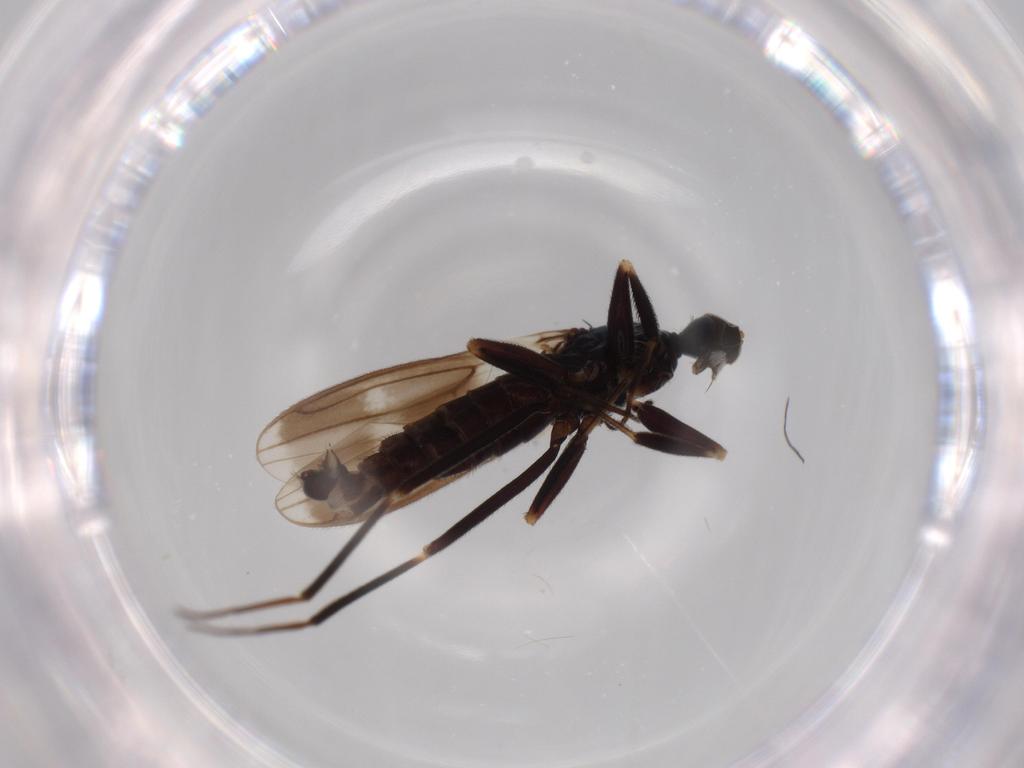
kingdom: Animalia
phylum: Arthropoda
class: Insecta
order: Diptera
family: Hybotidae
